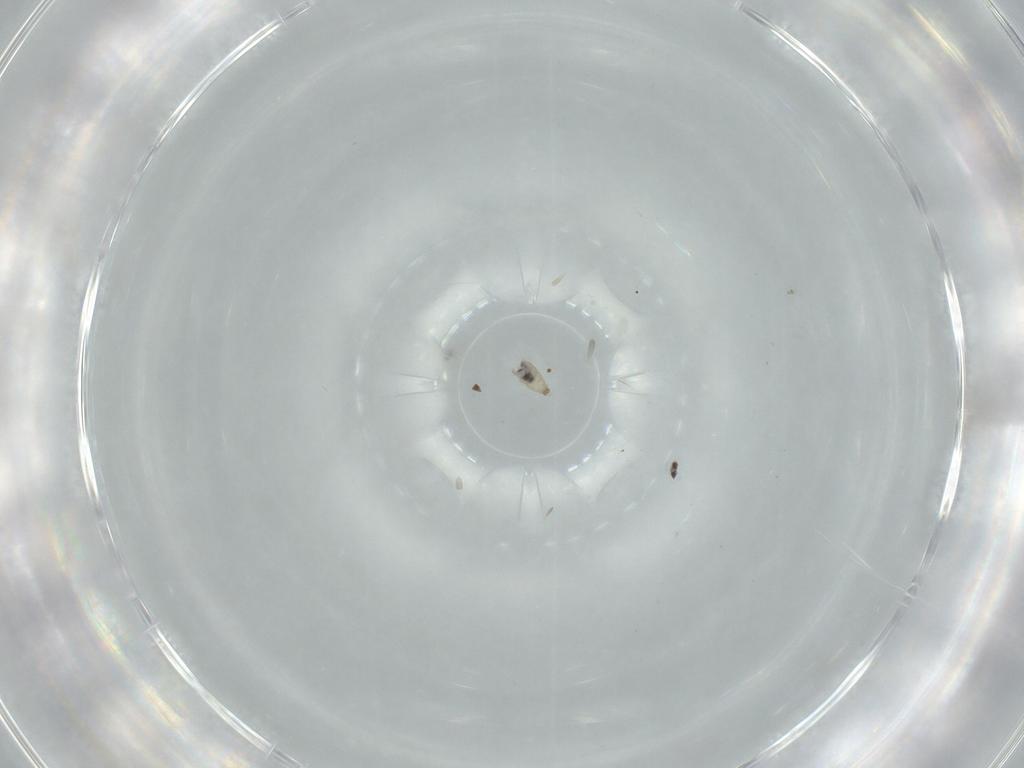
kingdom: Animalia
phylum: Arthropoda
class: Insecta
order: Diptera
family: Cecidomyiidae
